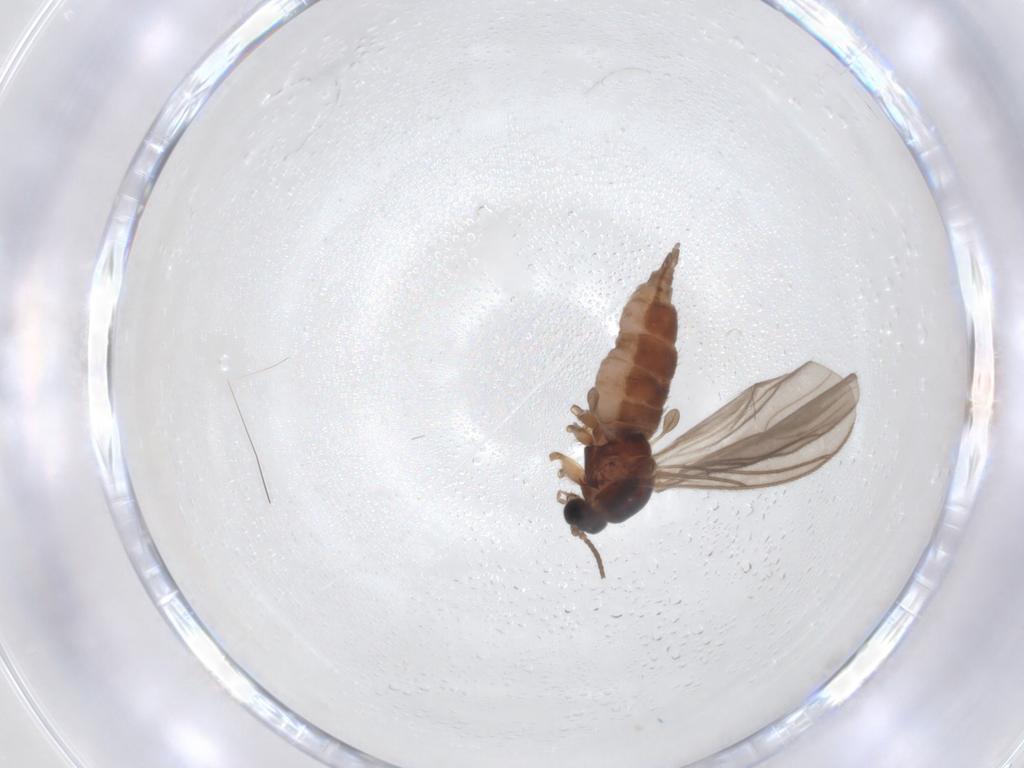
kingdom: Animalia
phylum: Arthropoda
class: Insecta
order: Diptera
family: Sciaridae
